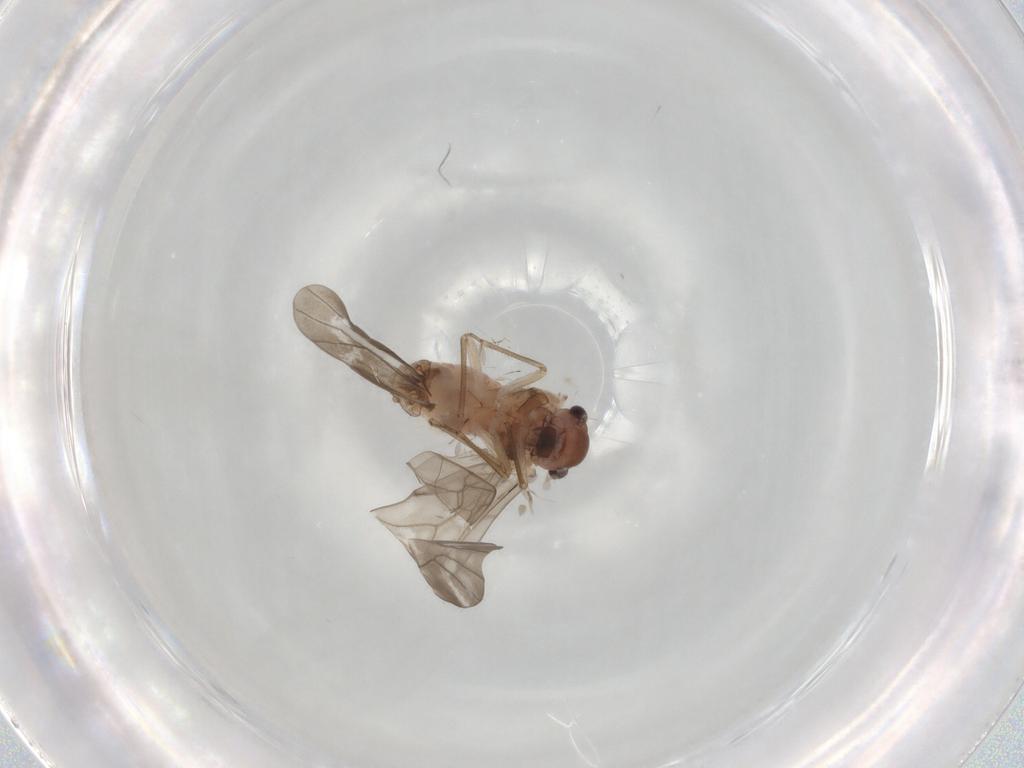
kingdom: Animalia
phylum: Arthropoda
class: Insecta
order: Psocodea
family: Peripsocidae
